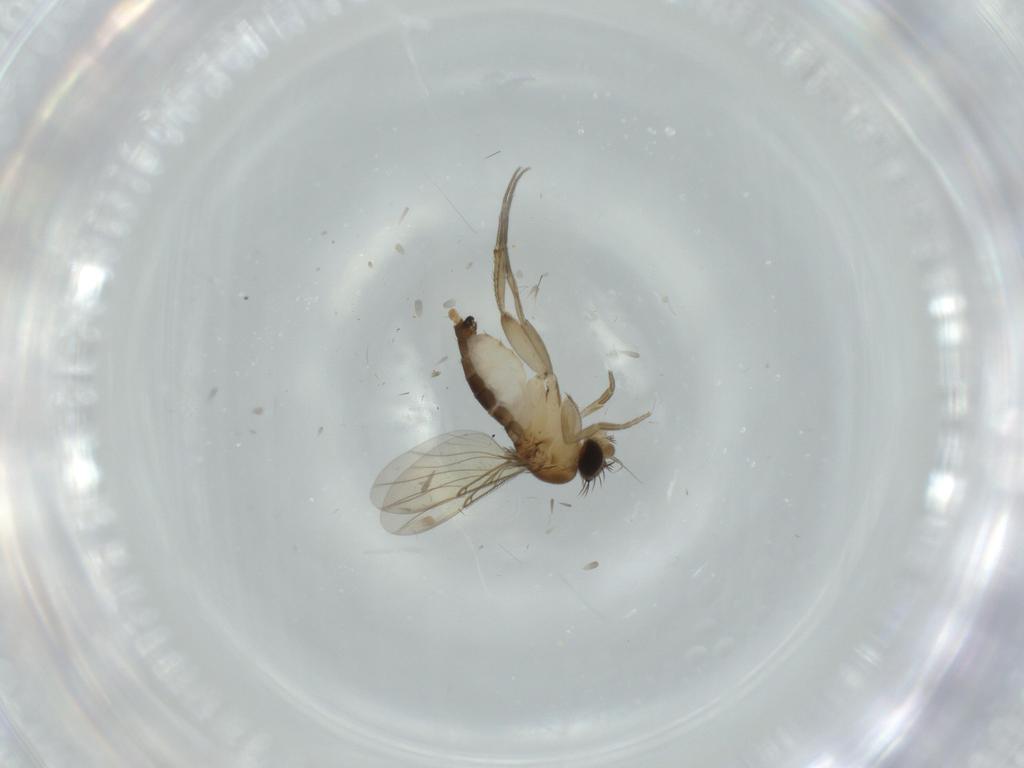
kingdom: Animalia
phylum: Arthropoda
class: Insecta
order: Diptera
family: Phoridae
